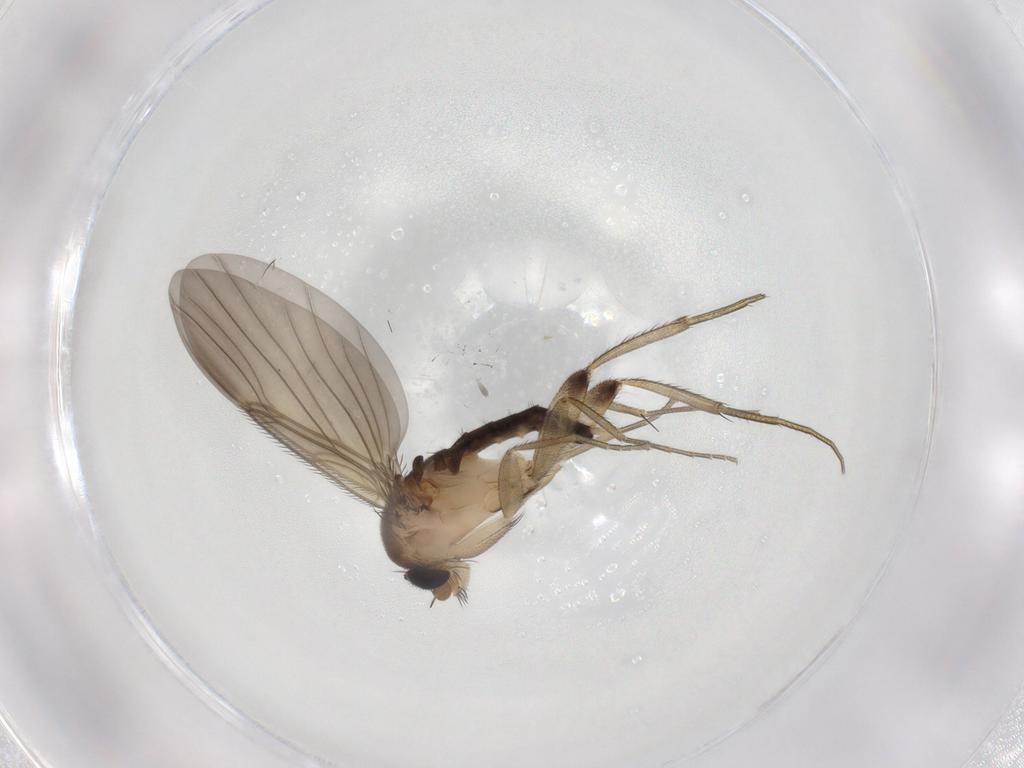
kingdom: Animalia
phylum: Arthropoda
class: Insecta
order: Diptera
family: Phoridae
